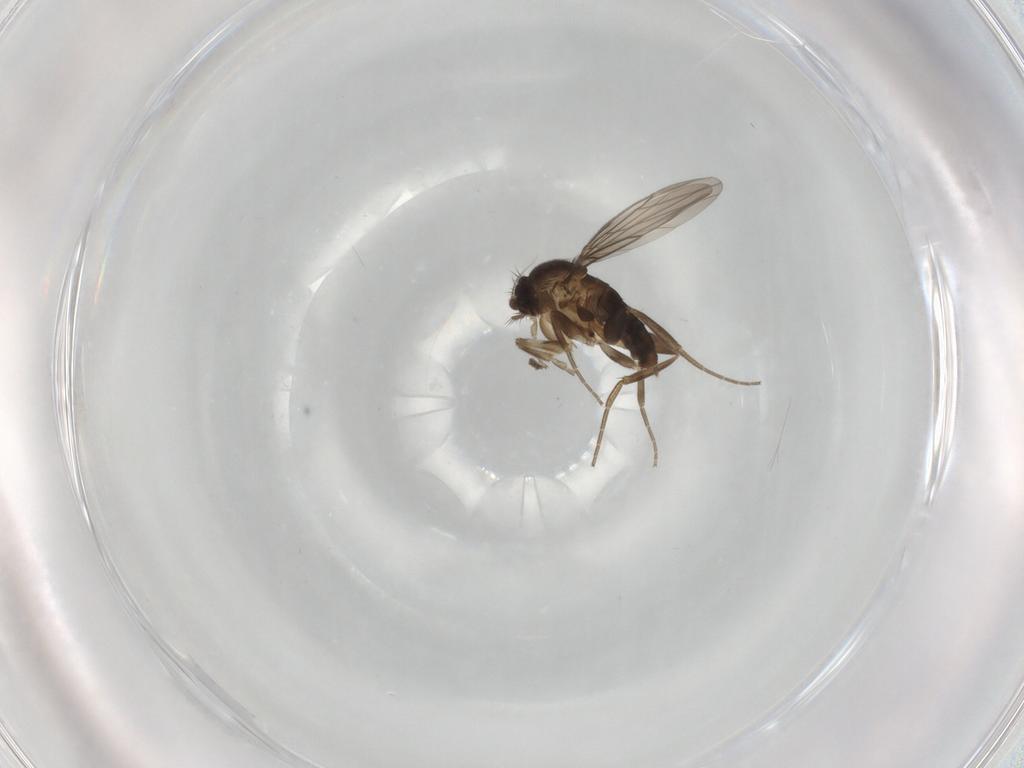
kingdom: Animalia
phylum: Arthropoda
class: Insecta
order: Diptera
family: Phoridae
